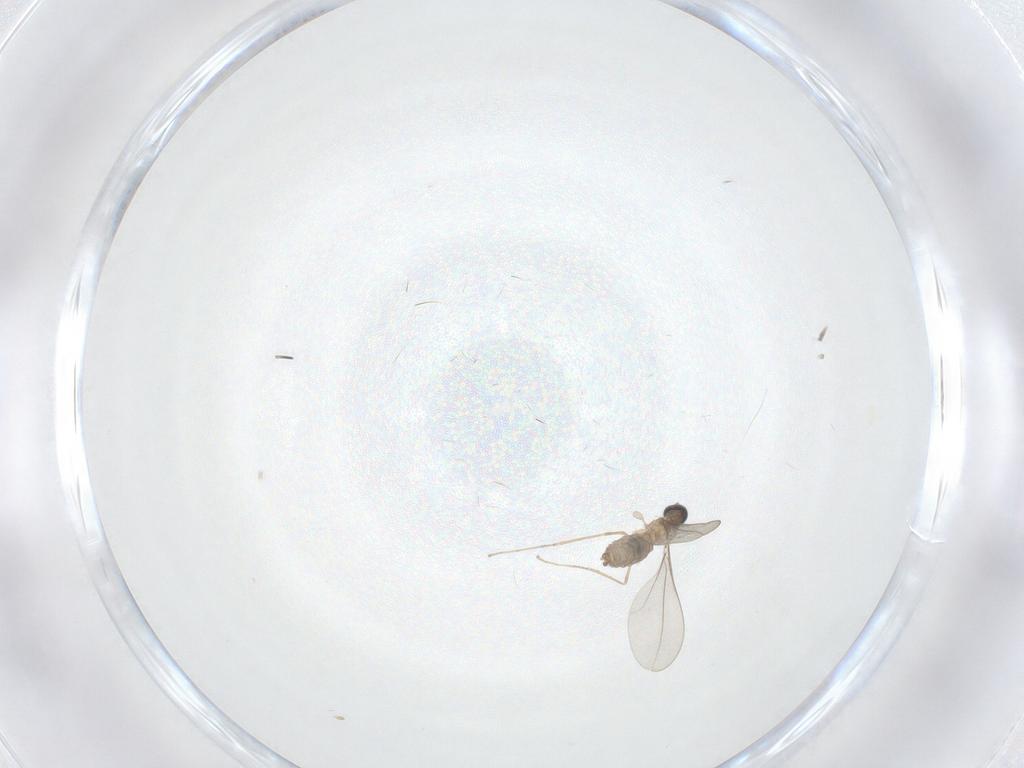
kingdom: Animalia
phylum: Arthropoda
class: Insecta
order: Diptera
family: Cecidomyiidae
